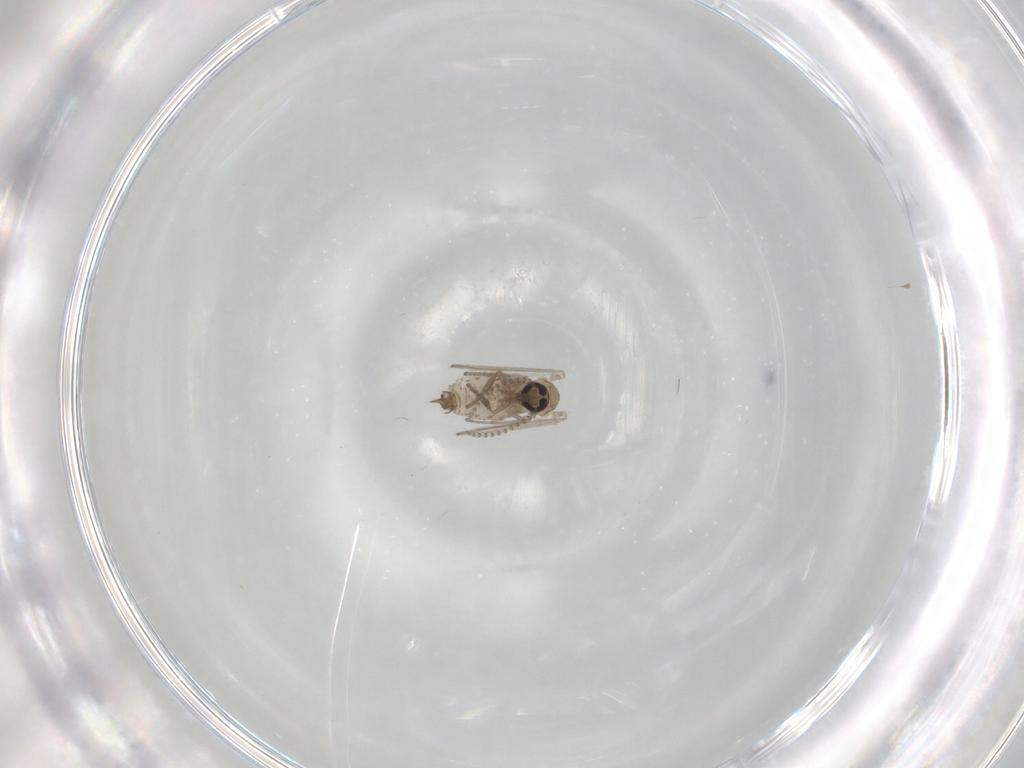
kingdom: Animalia
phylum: Arthropoda
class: Insecta
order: Diptera
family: Psychodidae
